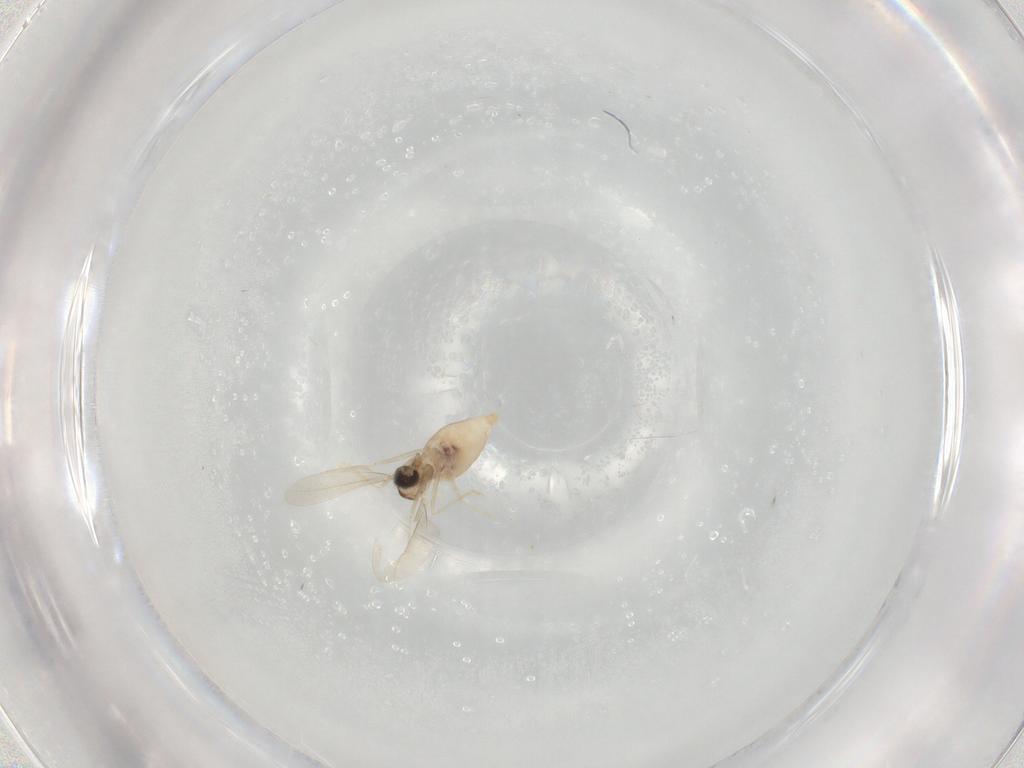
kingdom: Animalia
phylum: Arthropoda
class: Insecta
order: Diptera
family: Cecidomyiidae
